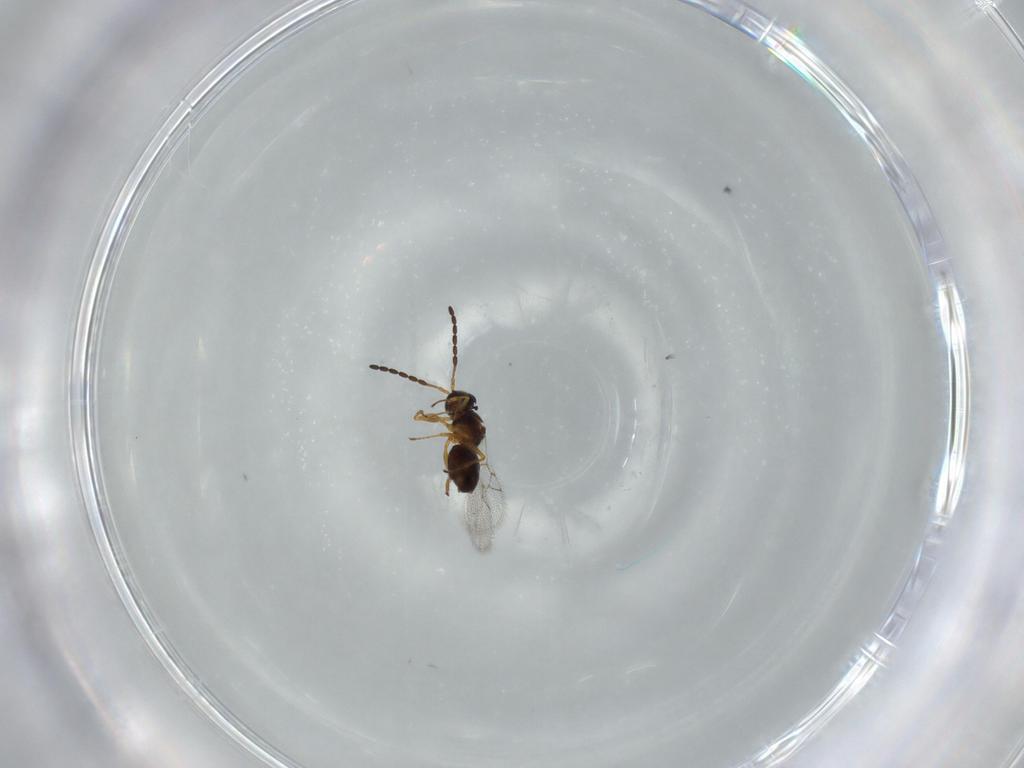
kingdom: Animalia
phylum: Arthropoda
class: Insecta
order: Hymenoptera
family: Figitidae
